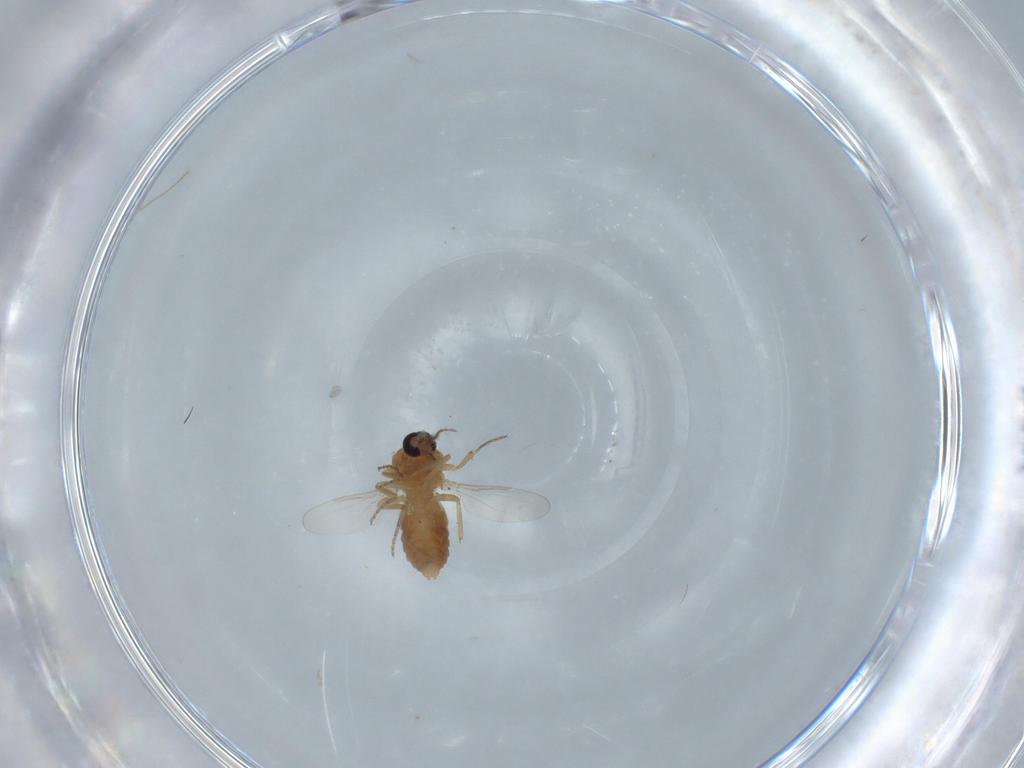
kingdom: Animalia
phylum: Arthropoda
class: Insecta
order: Diptera
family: Ceratopogonidae
